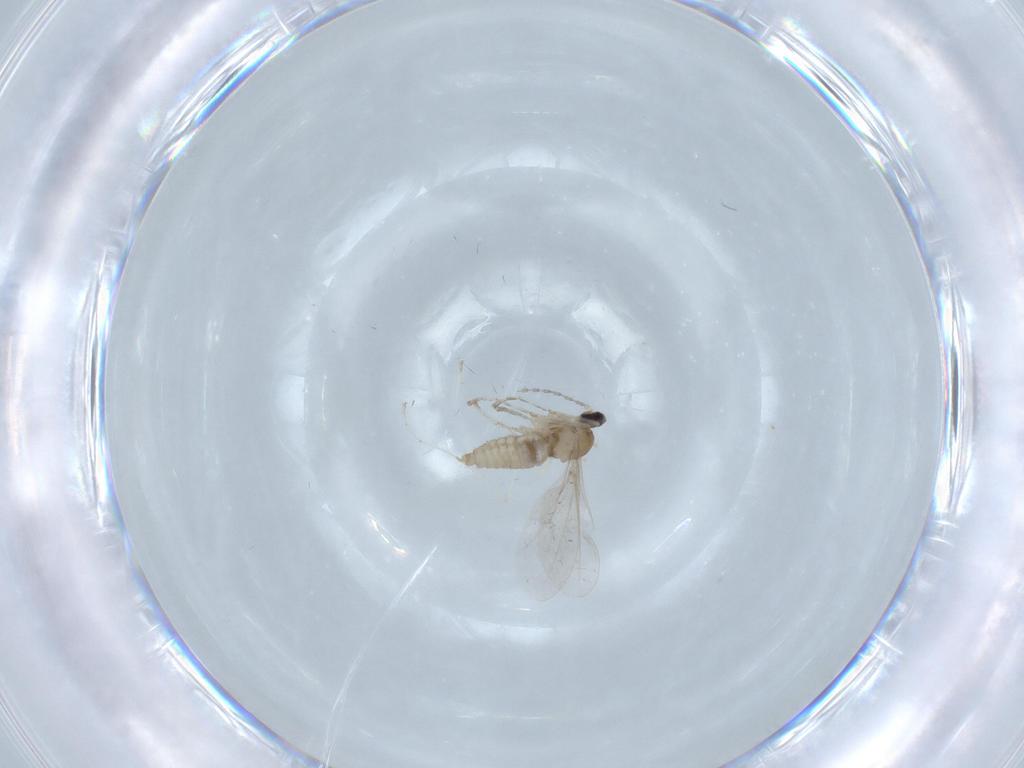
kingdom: Animalia
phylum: Arthropoda
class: Insecta
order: Diptera
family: Cecidomyiidae
